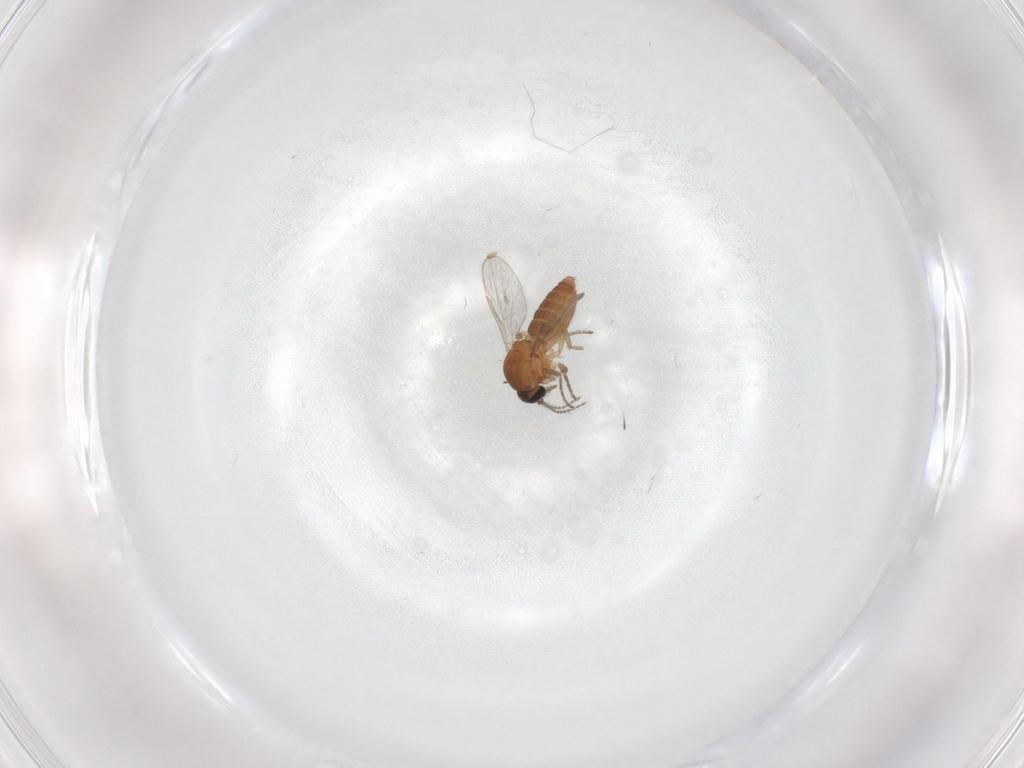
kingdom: Animalia
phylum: Arthropoda
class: Insecta
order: Diptera
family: Ceratopogonidae
